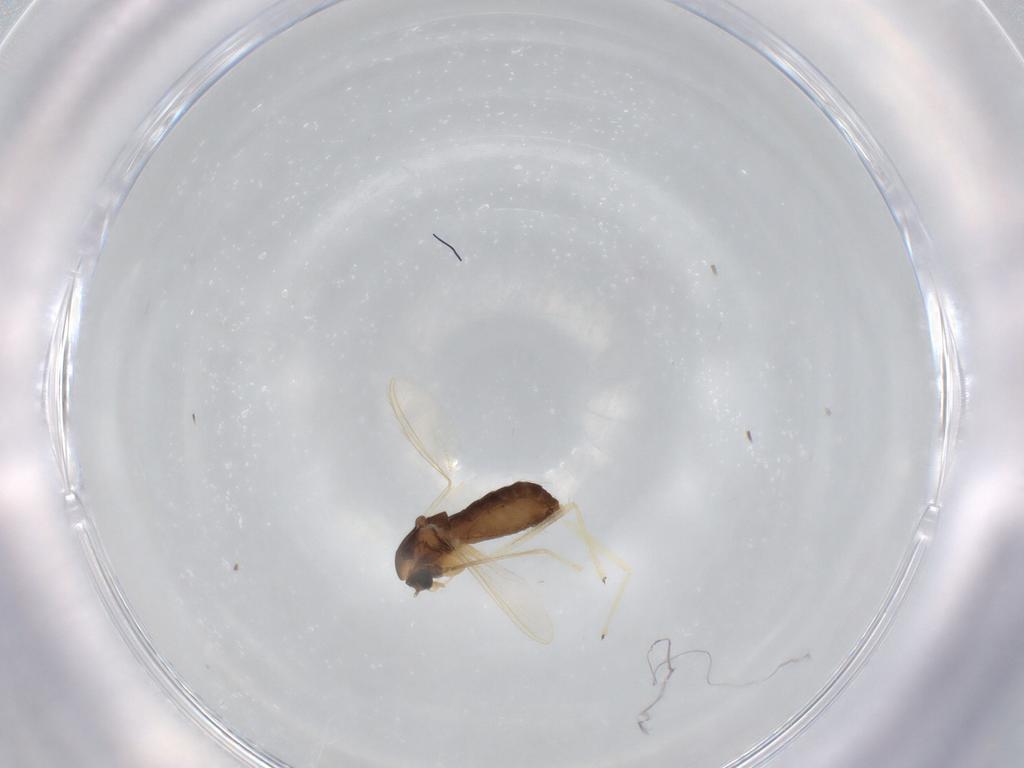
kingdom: Animalia
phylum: Arthropoda
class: Insecta
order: Diptera
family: Chironomidae
